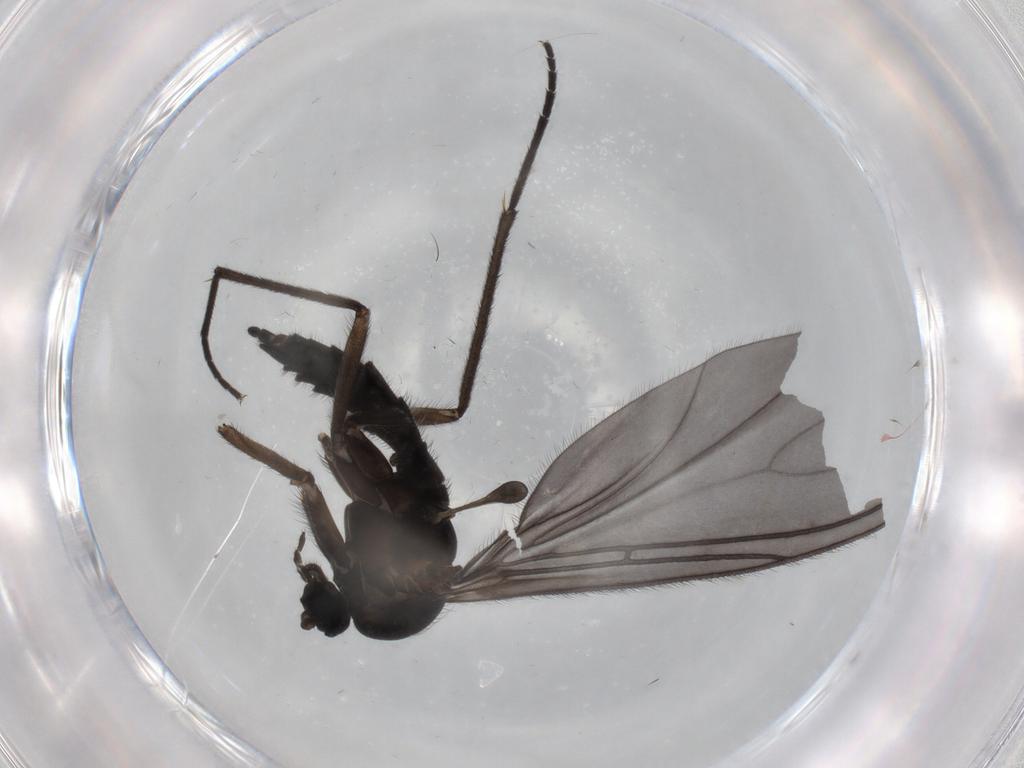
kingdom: Animalia
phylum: Arthropoda
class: Insecta
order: Diptera
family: Sciaridae
